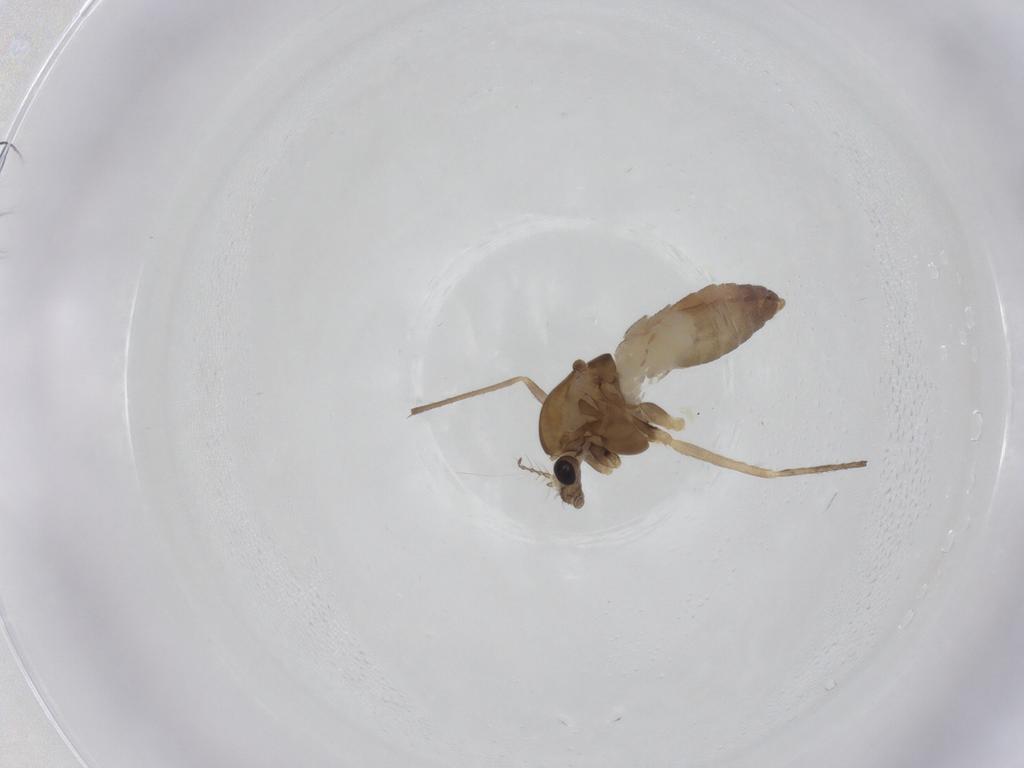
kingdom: Animalia
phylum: Arthropoda
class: Insecta
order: Diptera
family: Chironomidae
